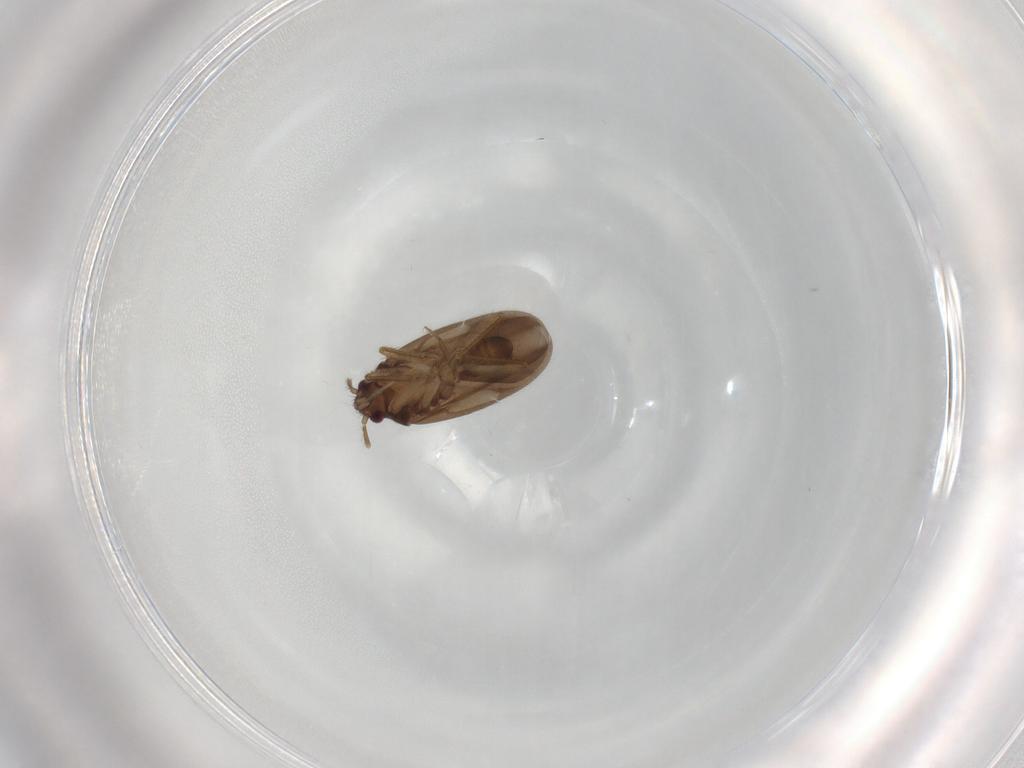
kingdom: Animalia
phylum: Arthropoda
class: Insecta
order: Hemiptera
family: Ceratocombidae
